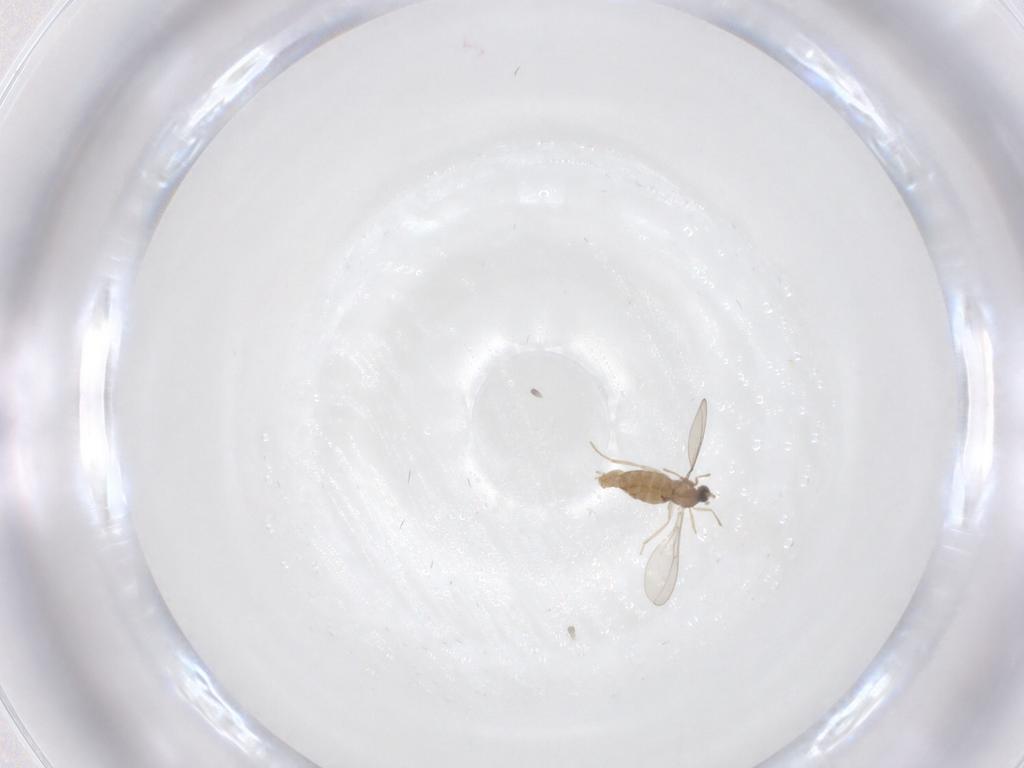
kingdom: Animalia
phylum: Arthropoda
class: Insecta
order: Diptera
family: Cecidomyiidae
